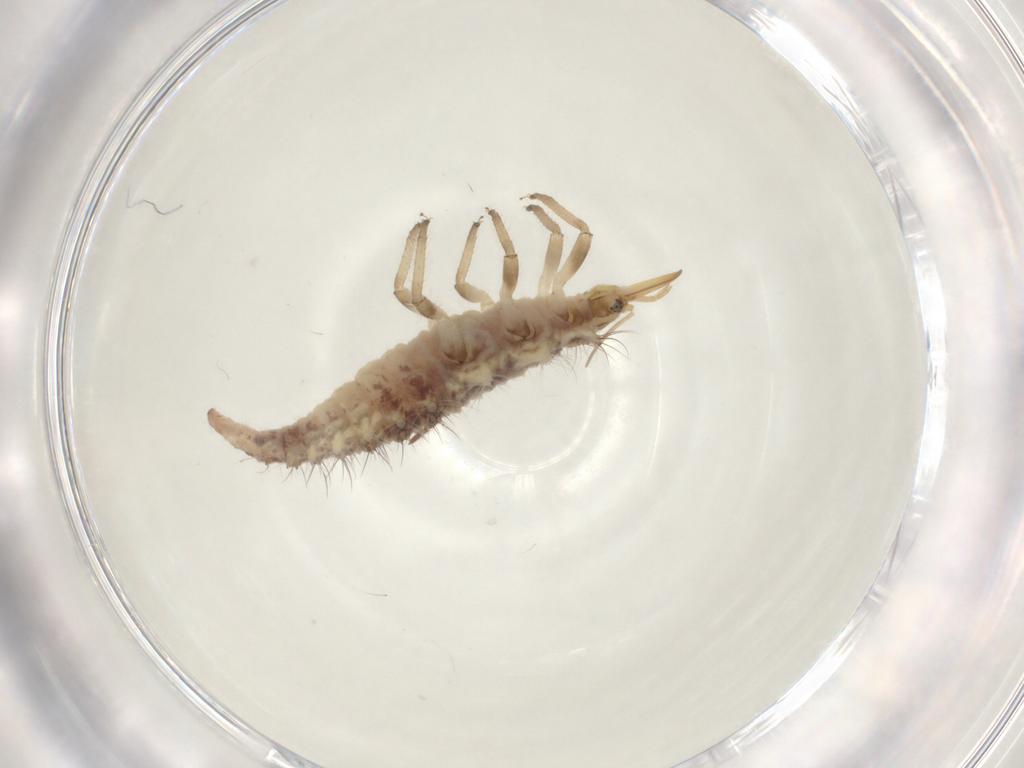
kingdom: Animalia
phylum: Arthropoda
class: Insecta
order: Neuroptera
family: Chrysopidae
